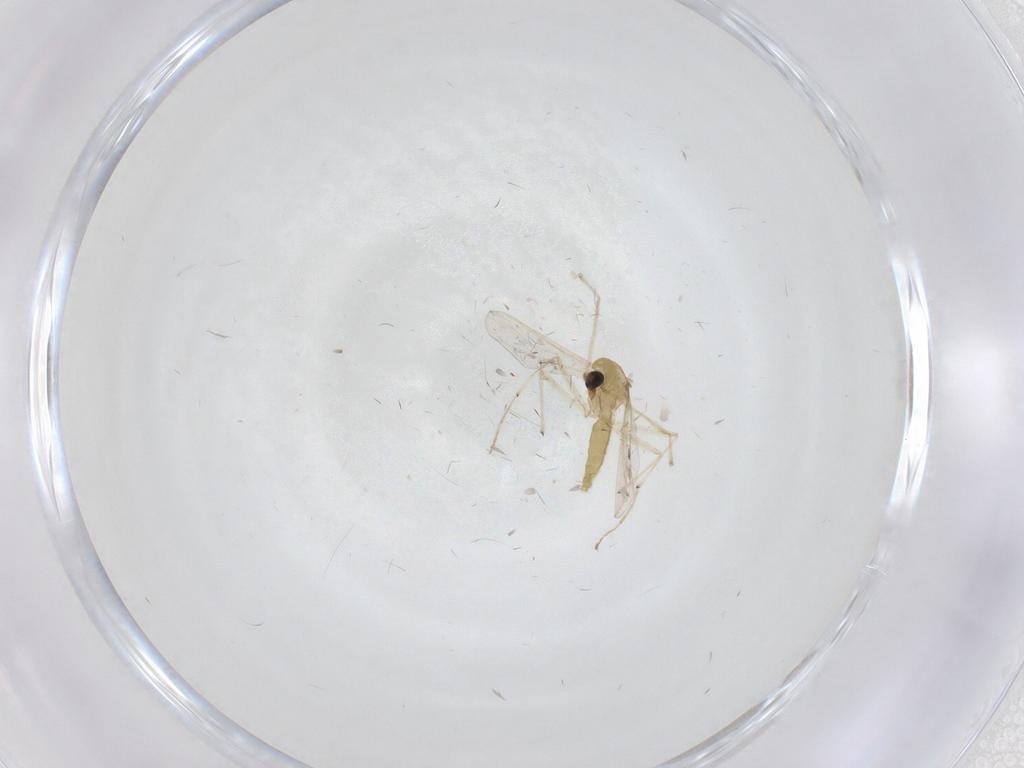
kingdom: Animalia
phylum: Arthropoda
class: Insecta
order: Diptera
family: Chironomidae
